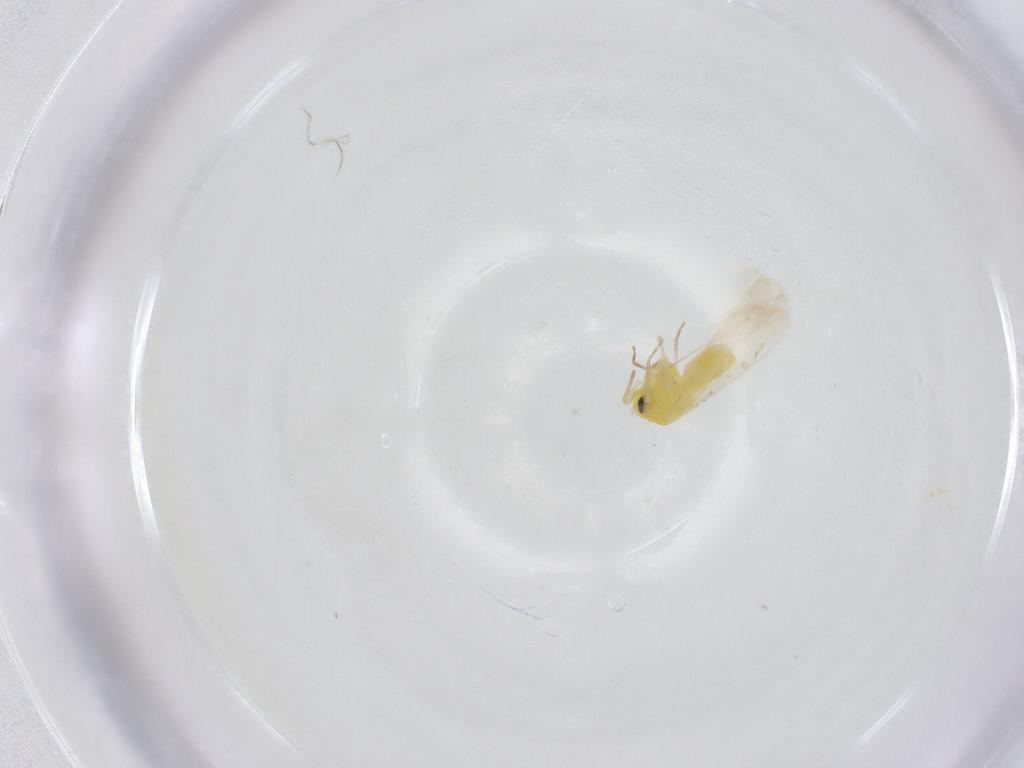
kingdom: Animalia
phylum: Arthropoda
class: Insecta
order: Hemiptera
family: Aleyrodidae
